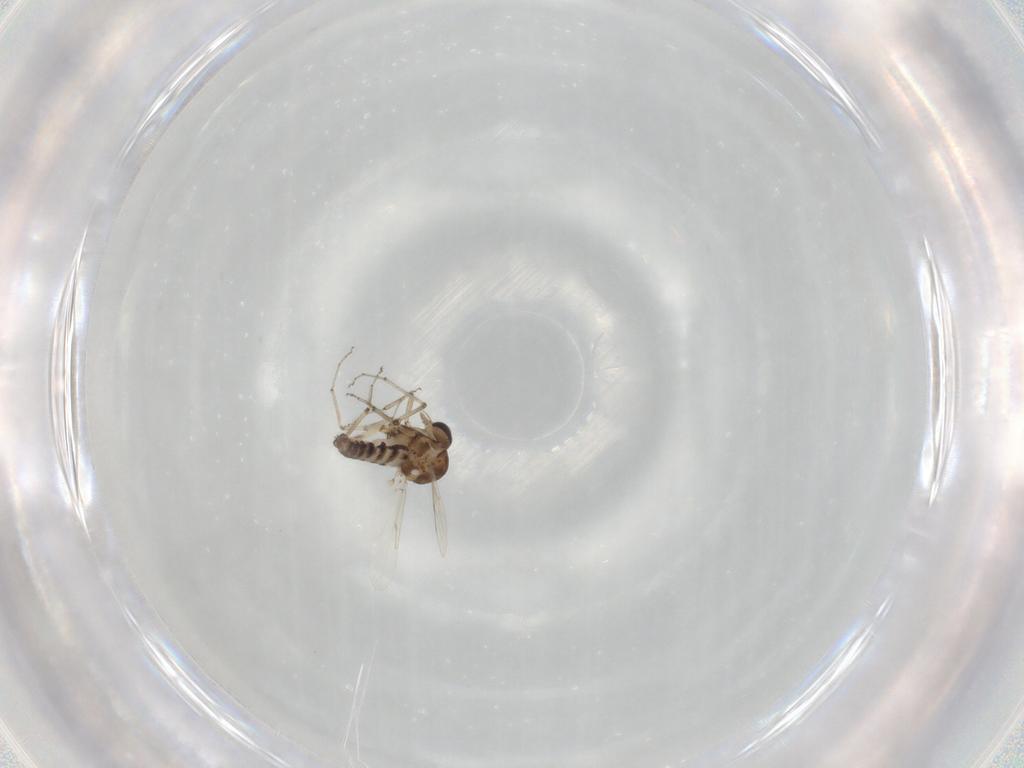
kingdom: Animalia
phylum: Arthropoda
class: Insecta
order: Diptera
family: Ceratopogonidae
